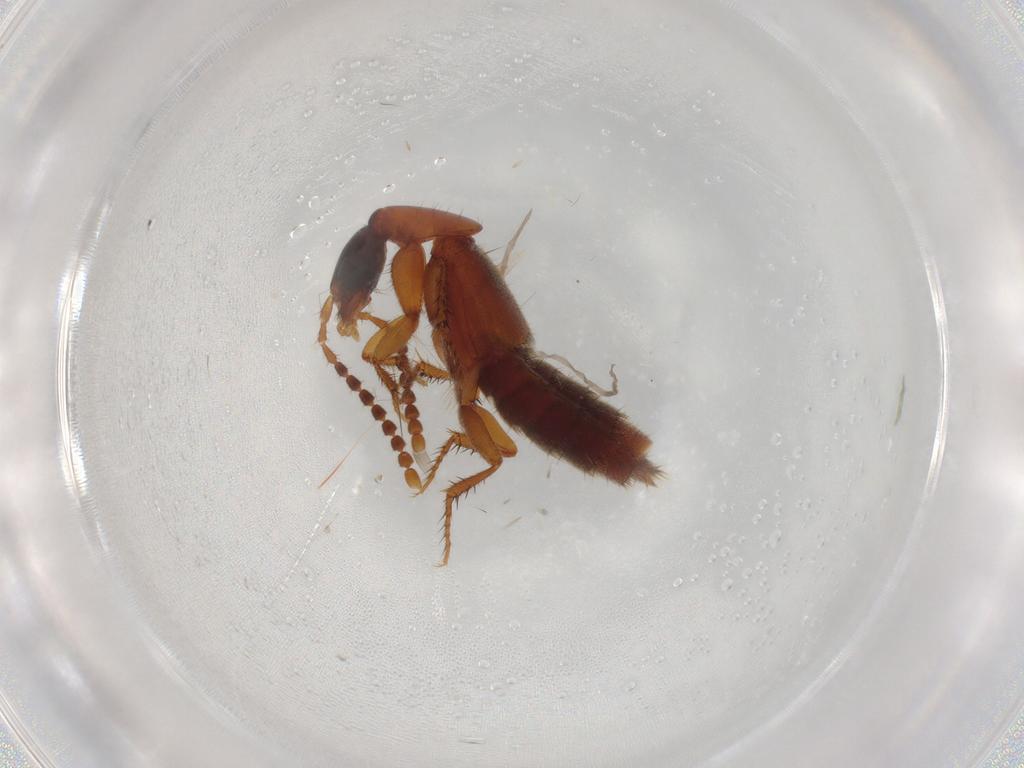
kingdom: Animalia
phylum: Arthropoda
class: Insecta
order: Coleoptera
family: Staphylinidae
